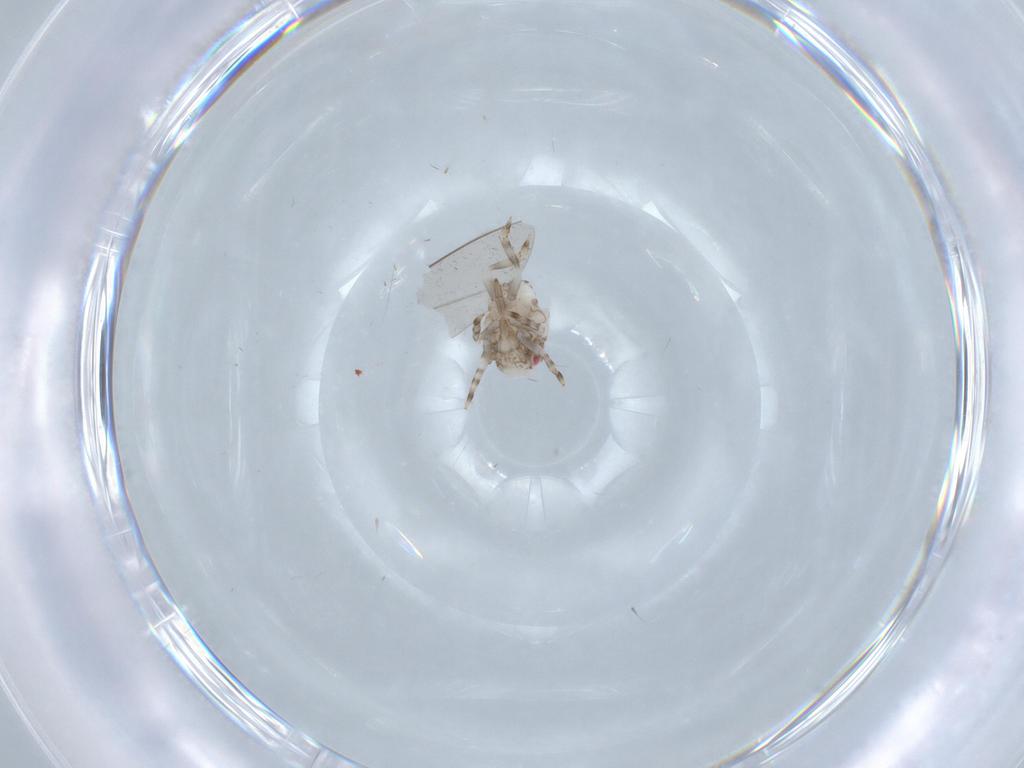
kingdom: Animalia
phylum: Arthropoda
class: Insecta
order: Hemiptera
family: Acanaloniidae
